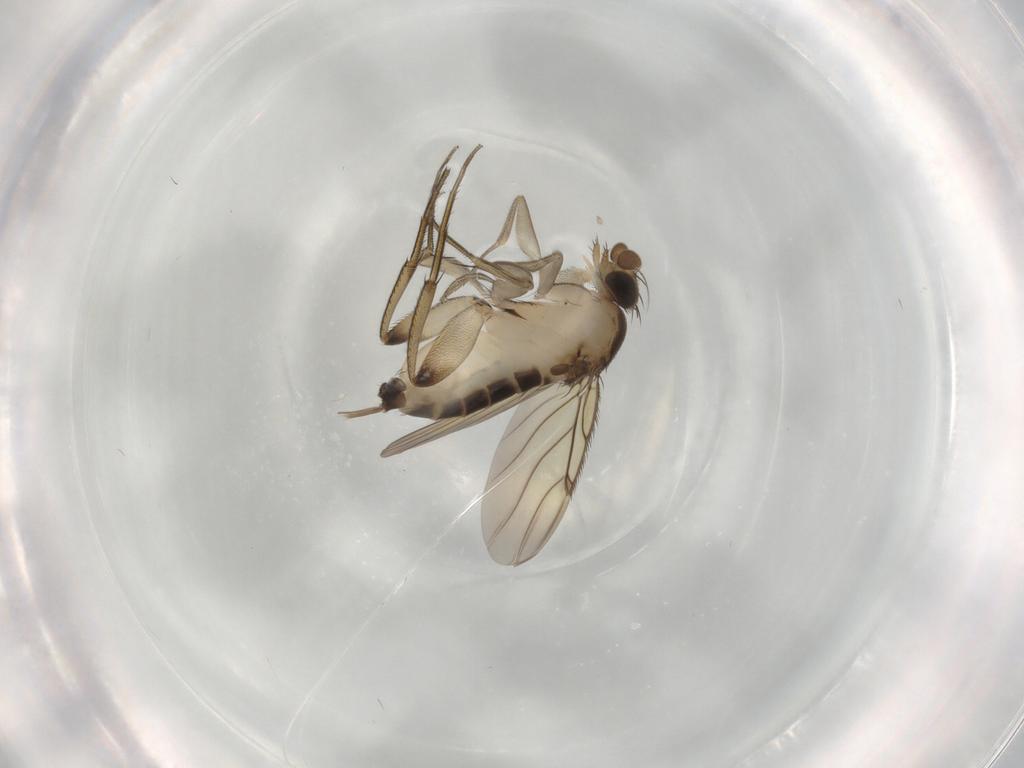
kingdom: Animalia
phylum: Arthropoda
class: Insecta
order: Diptera
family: Phoridae
